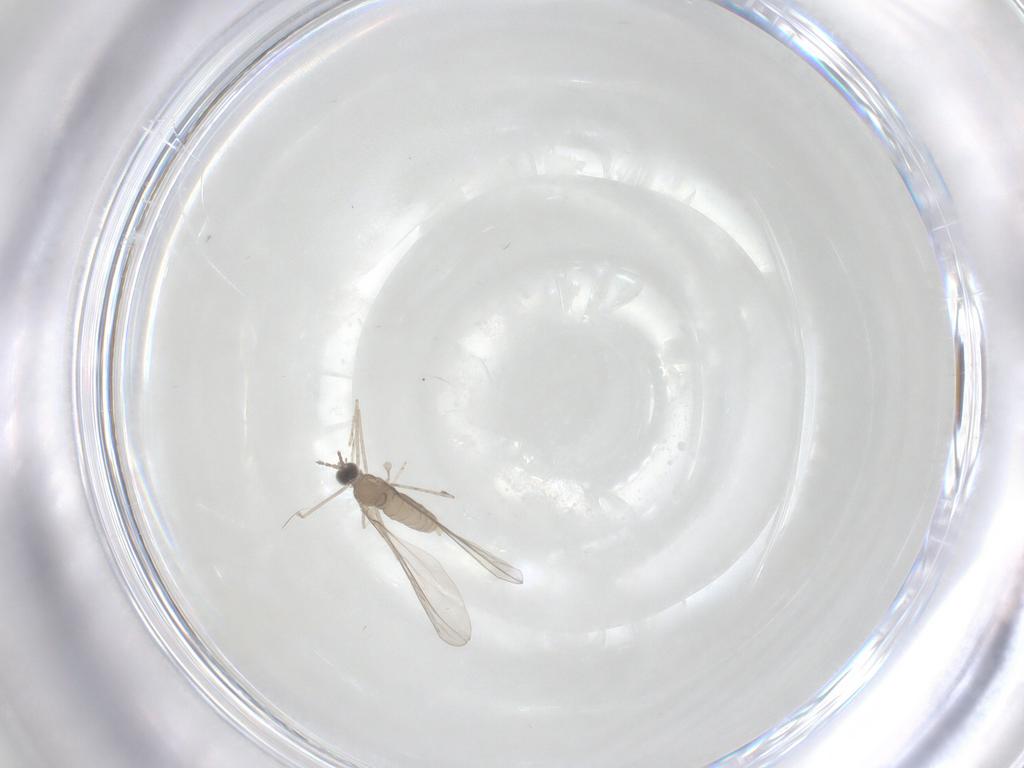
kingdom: Animalia
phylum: Arthropoda
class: Insecta
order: Diptera
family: Limoniidae
